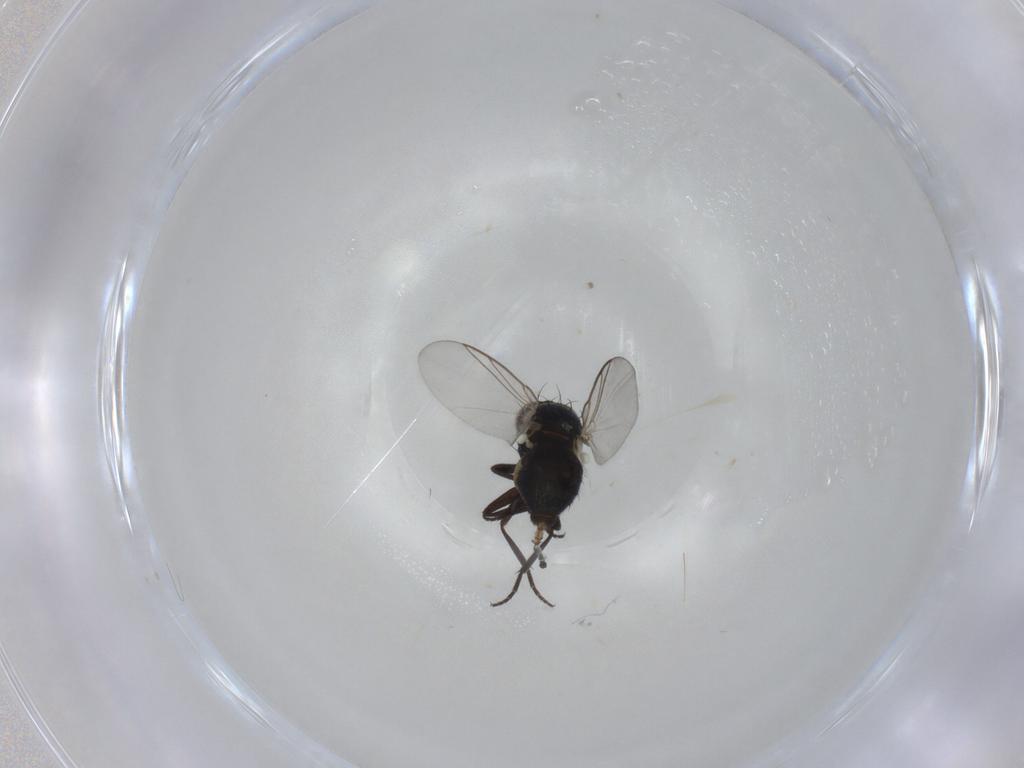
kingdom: Animalia
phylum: Arthropoda
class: Insecta
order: Diptera
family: Agromyzidae
